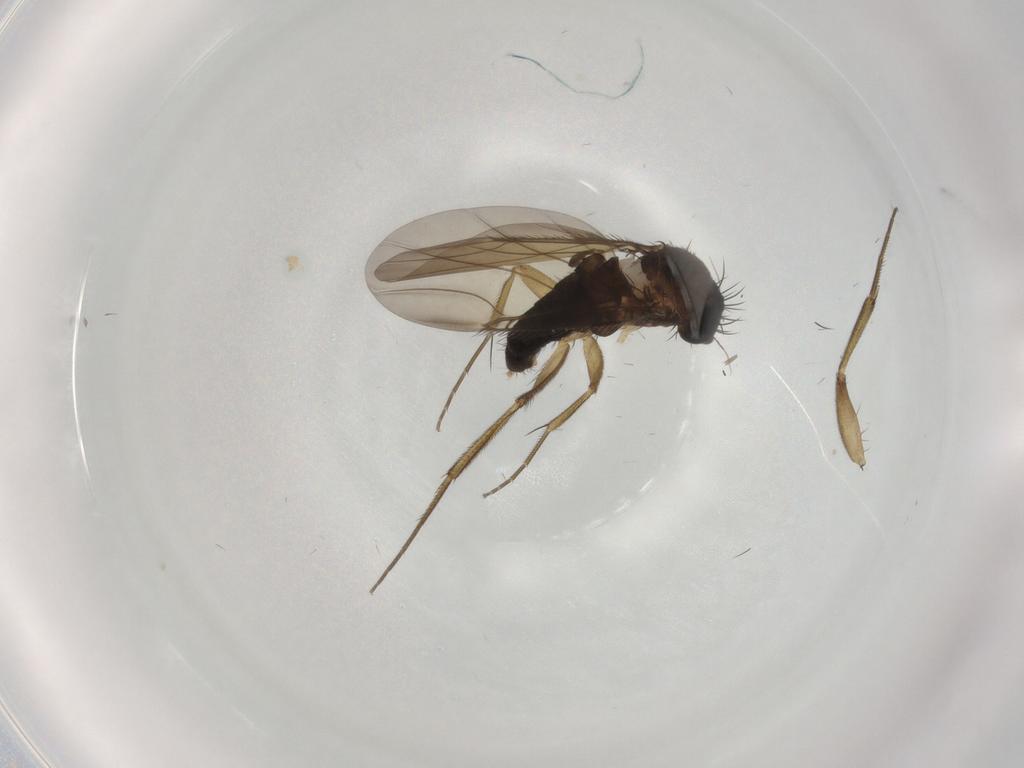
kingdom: Animalia
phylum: Arthropoda
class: Insecta
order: Diptera
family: Phoridae
